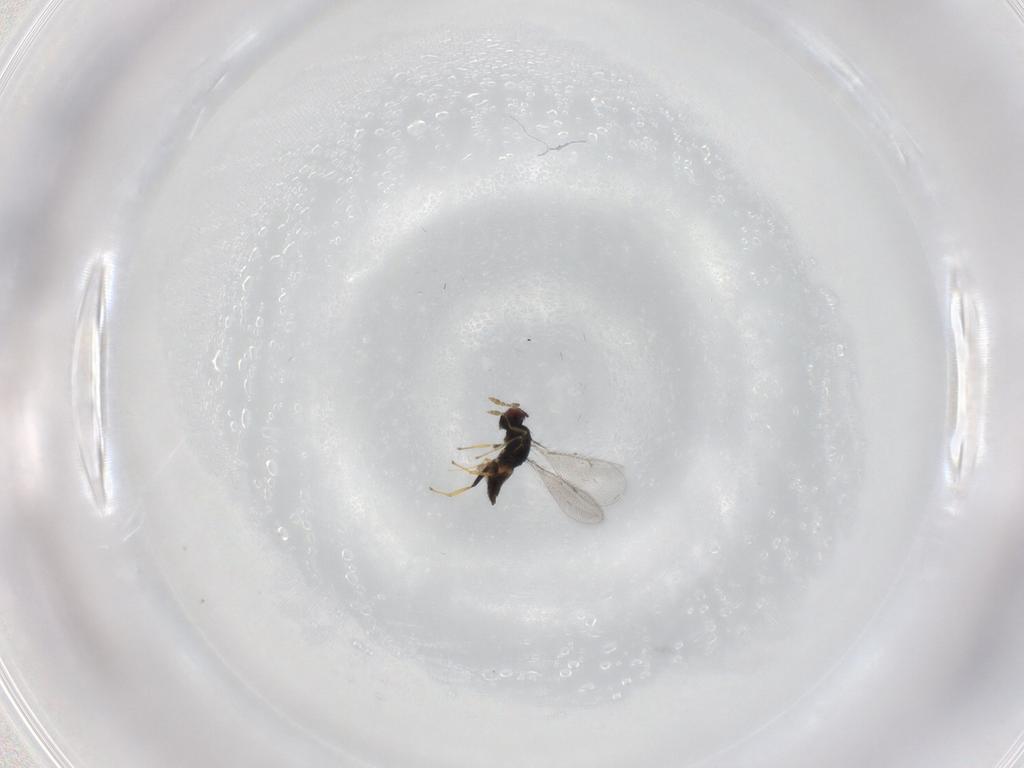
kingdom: Animalia
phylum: Arthropoda
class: Insecta
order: Hymenoptera
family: Eulophidae
